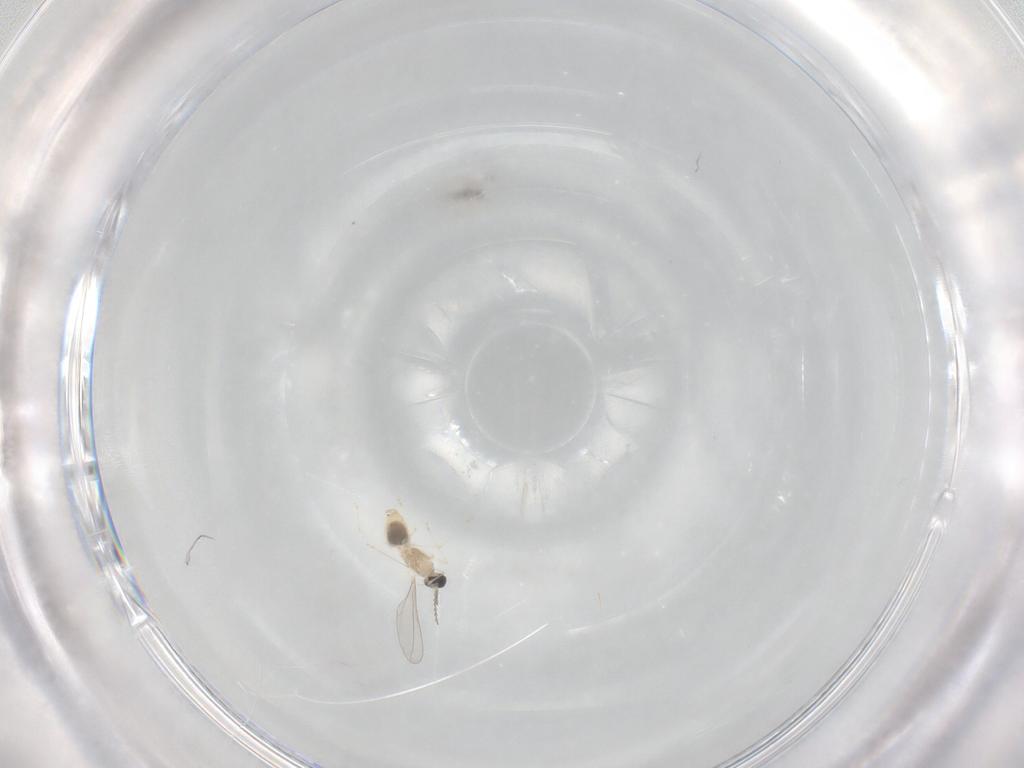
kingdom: Animalia
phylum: Arthropoda
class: Insecta
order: Diptera
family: Cecidomyiidae
